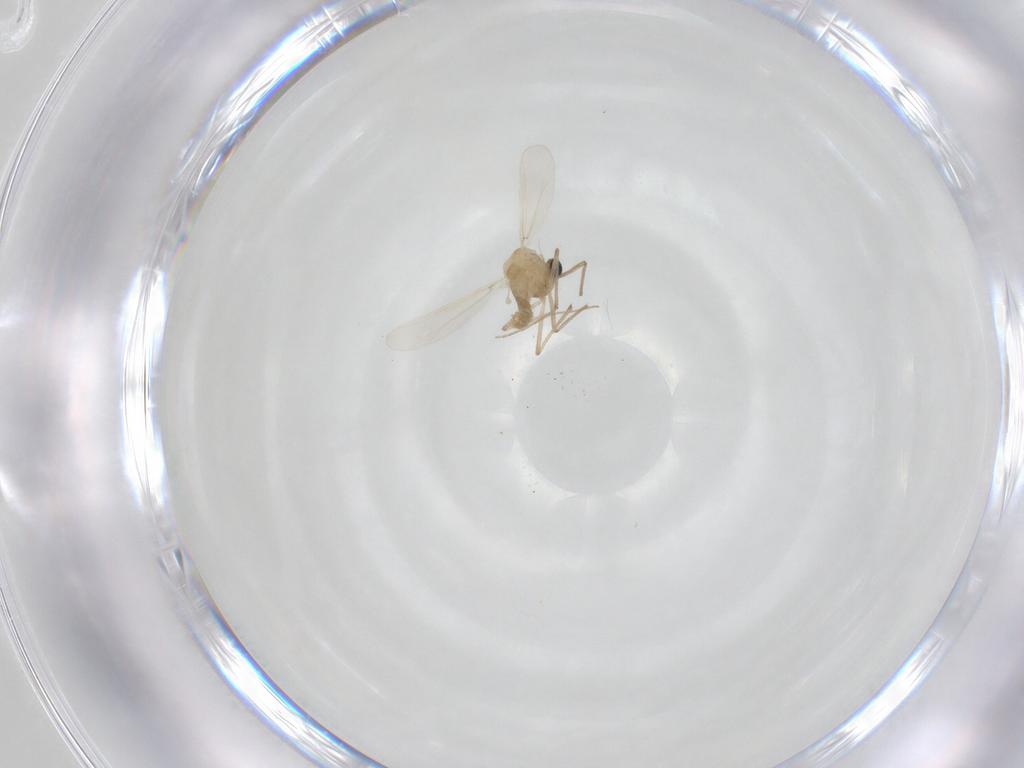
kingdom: Animalia
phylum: Arthropoda
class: Insecta
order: Diptera
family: Chironomidae
